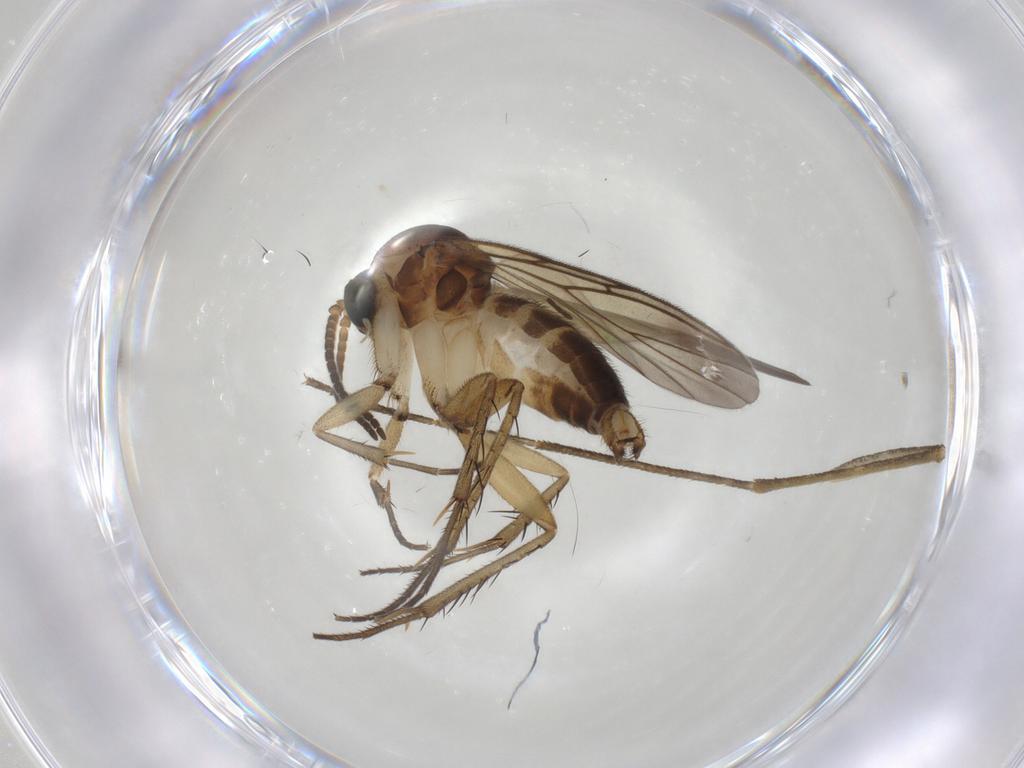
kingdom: Animalia
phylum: Arthropoda
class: Insecta
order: Diptera
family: Mycetophilidae
